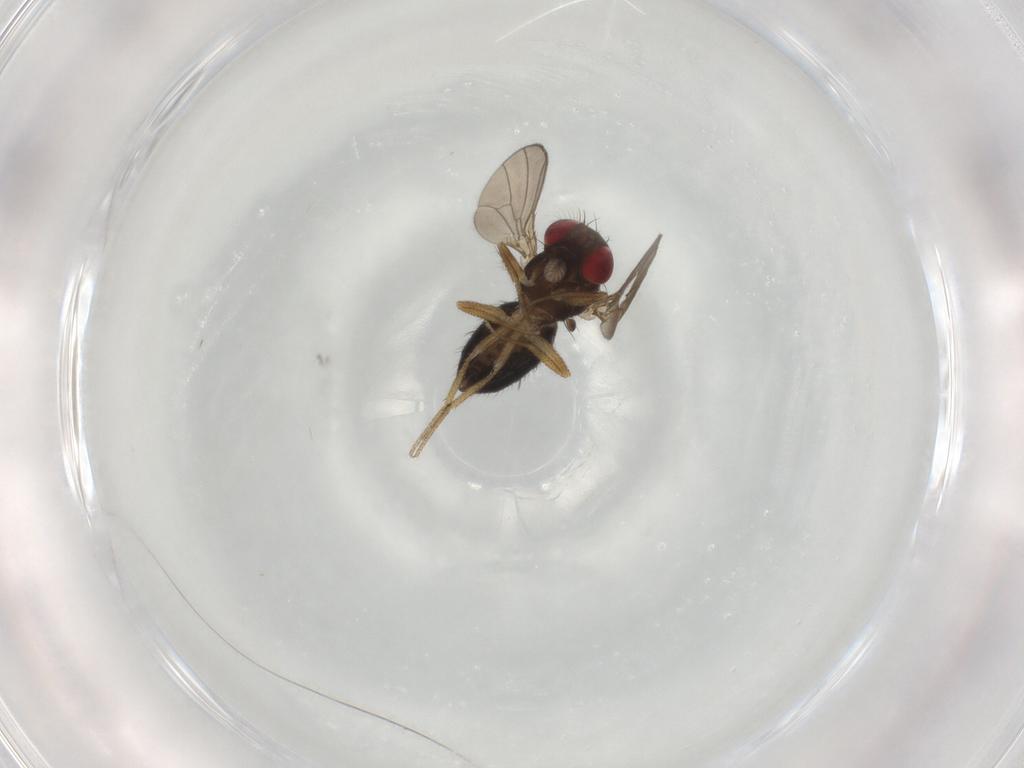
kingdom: Animalia
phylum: Arthropoda
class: Insecta
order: Diptera
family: Drosophilidae
